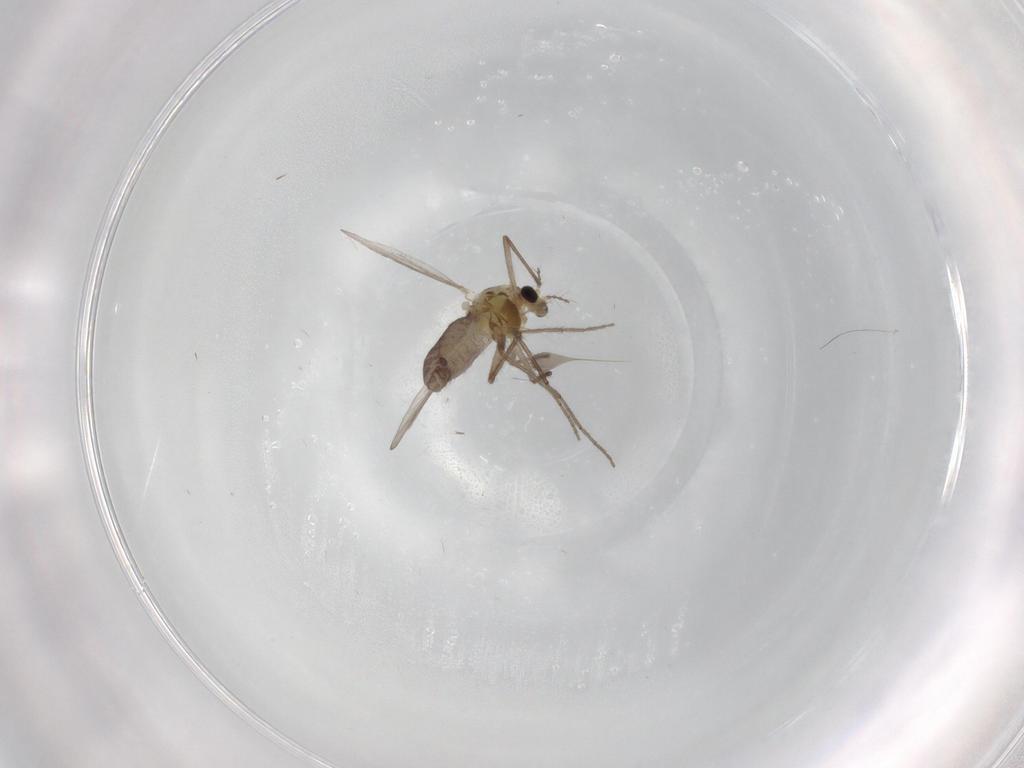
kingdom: Animalia
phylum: Arthropoda
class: Insecta
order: Diptera
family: Chironomidae
